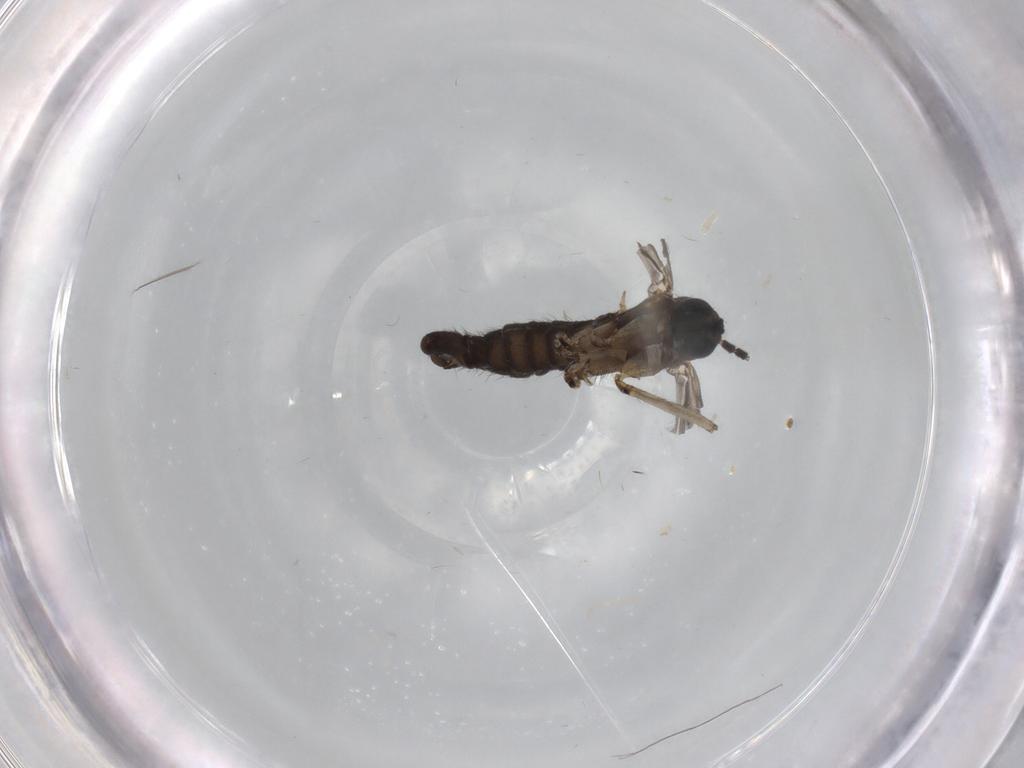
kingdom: Animalia
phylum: Arthropoda
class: Insecta
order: Diptera
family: Sciaridae
